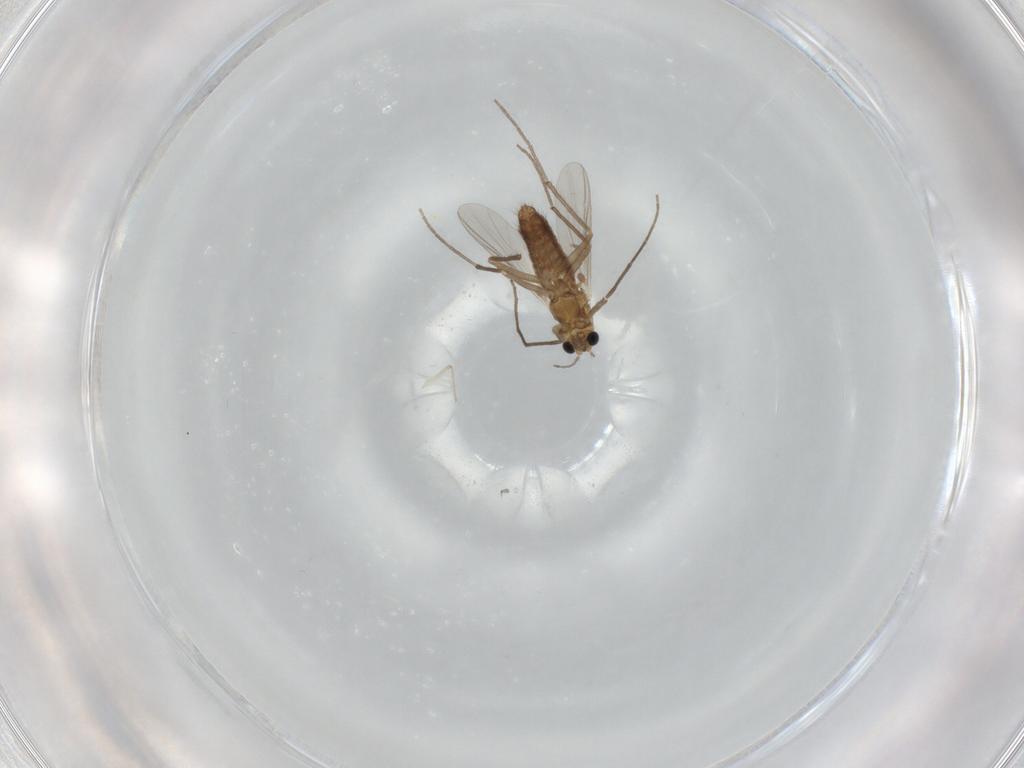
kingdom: Animalia
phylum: Arthropoda
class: Insecta
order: Diptera
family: Chironomidae
